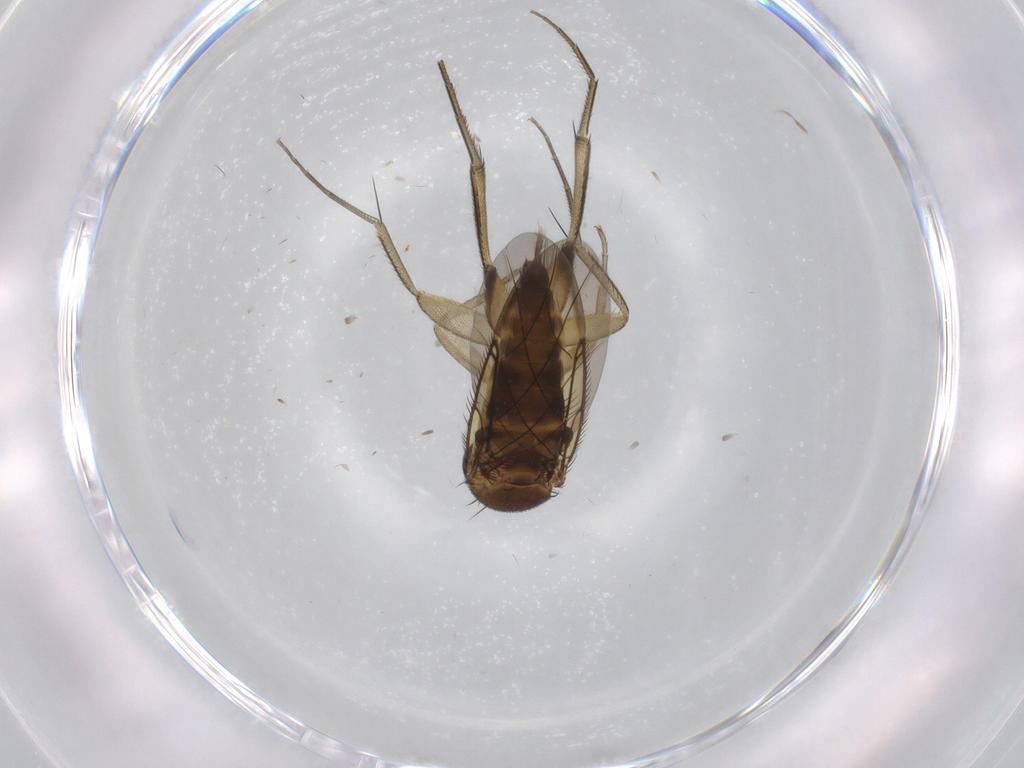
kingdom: Animalia
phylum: Arthropoda
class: Insecta
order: Diptera
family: Phoridae
